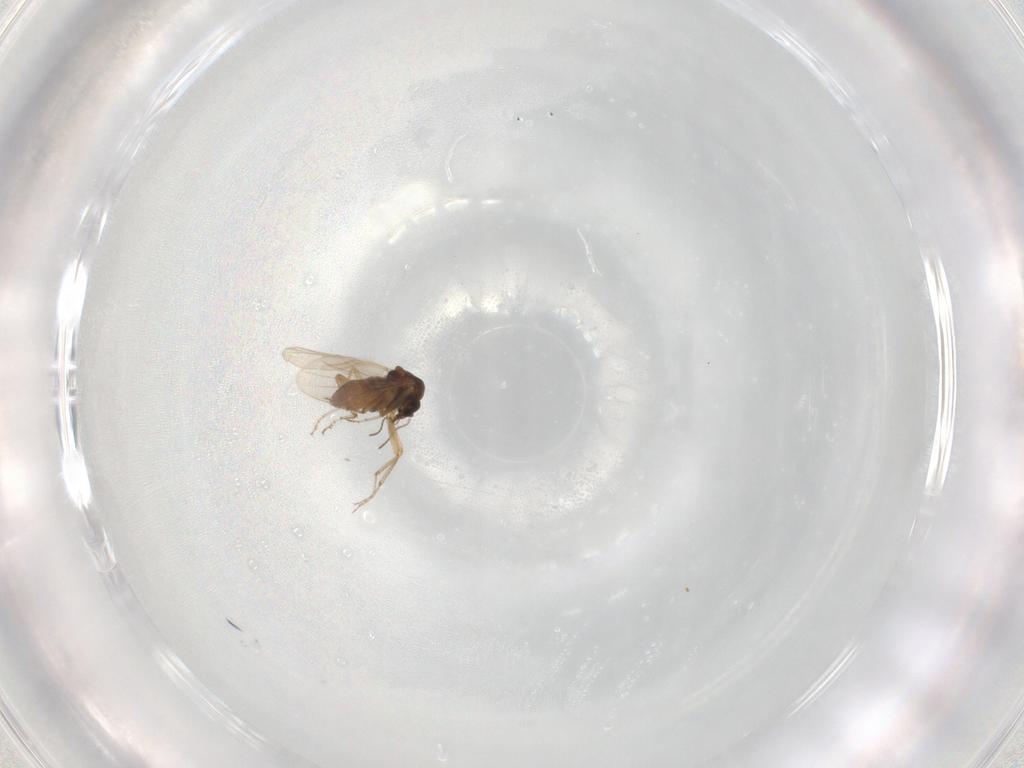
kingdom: Animalia
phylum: Arthropoda
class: Insecta
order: Diptera
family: Ceratopogonidae
